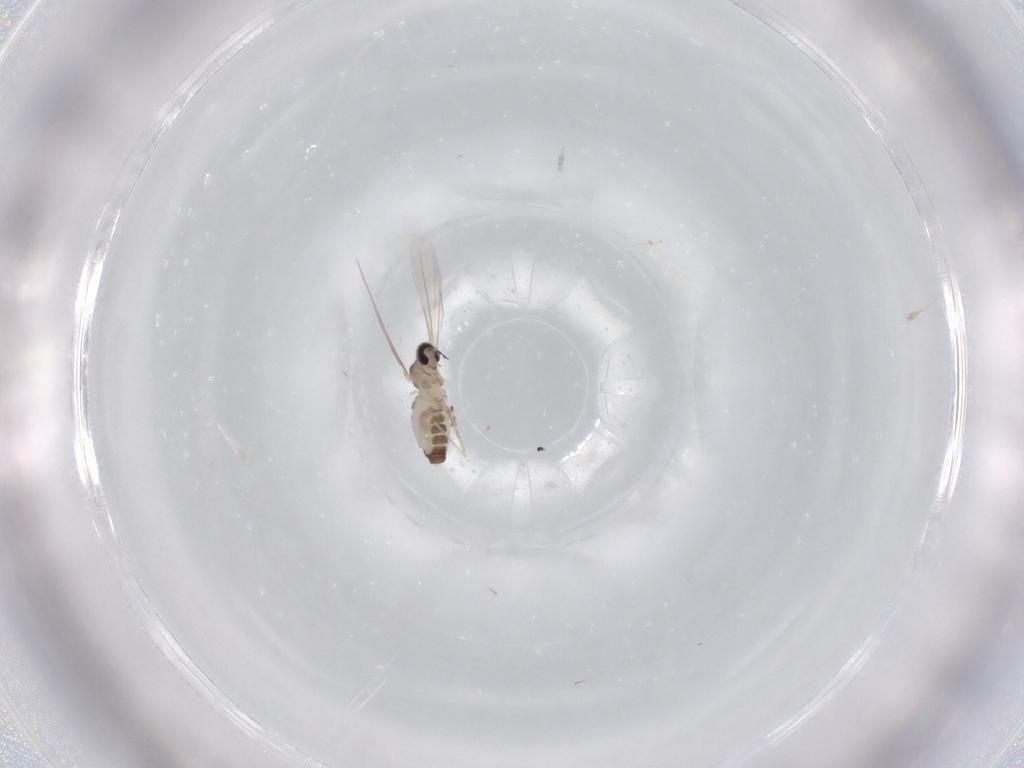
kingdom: Animalia
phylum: Arthropoda
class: Insecta
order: Diptera
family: Cecidomyiidae
